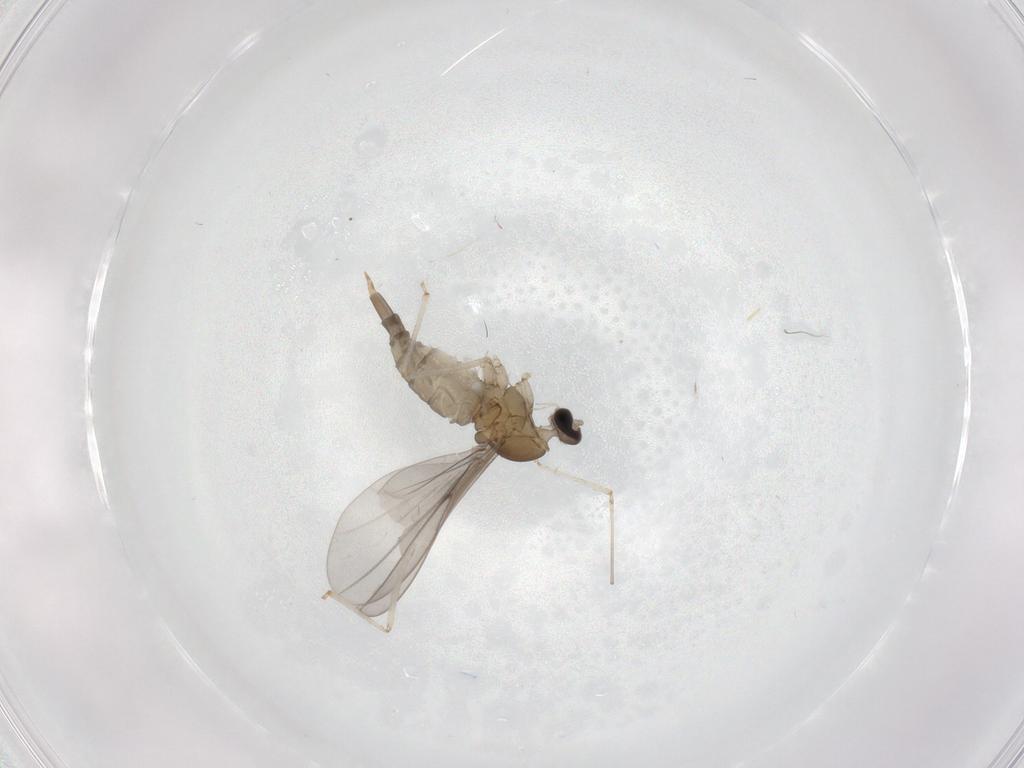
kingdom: Animalia
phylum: Arthropoda
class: Insecta
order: Diptera
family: Cecidomyiidae
